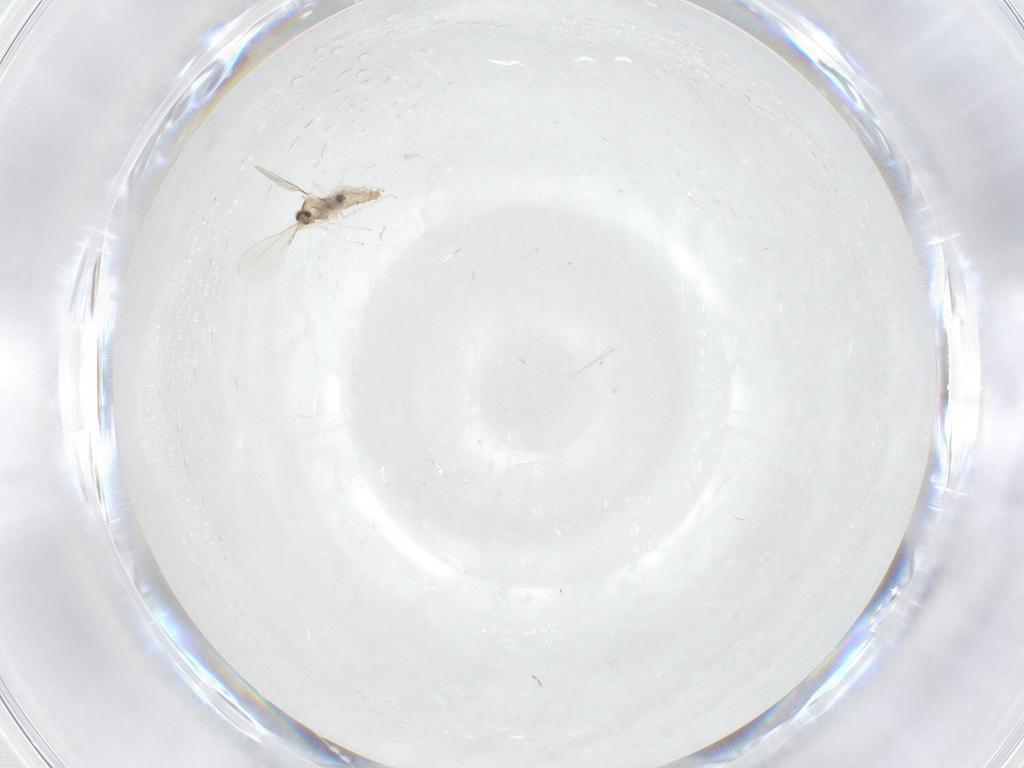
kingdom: Animalia
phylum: Arthropoda
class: Insecta
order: Diptera
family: Cecidomyiidae
